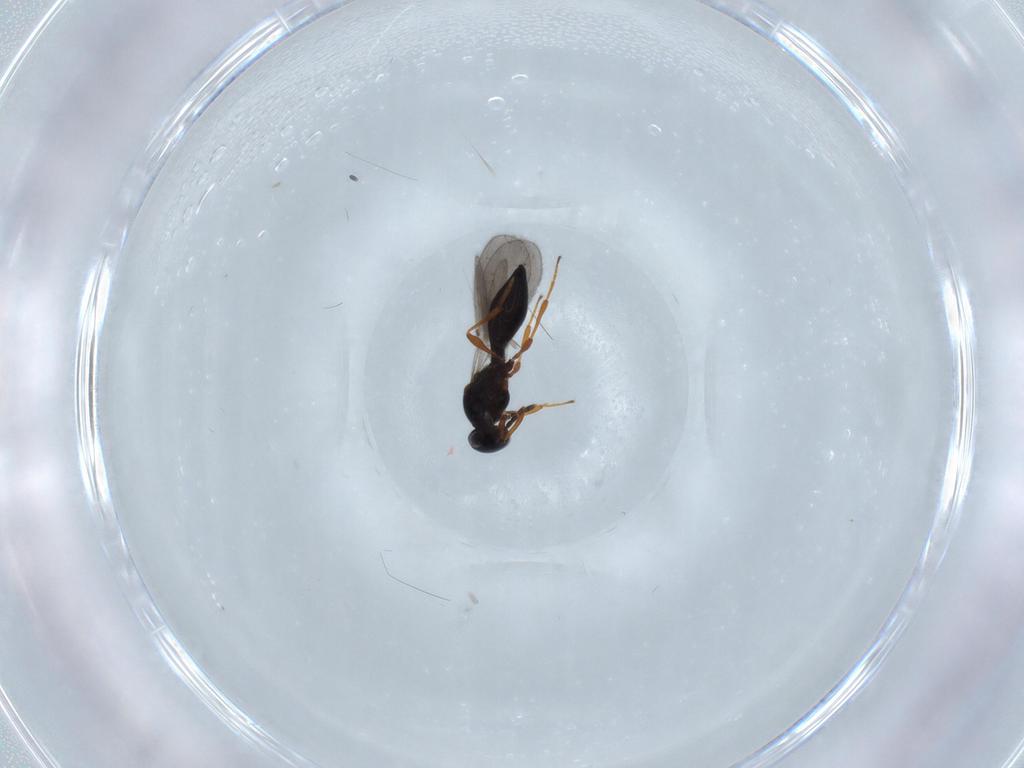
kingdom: Animalia
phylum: Arthropoda
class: Insecta
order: Hymenoptera
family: Platygastridae
